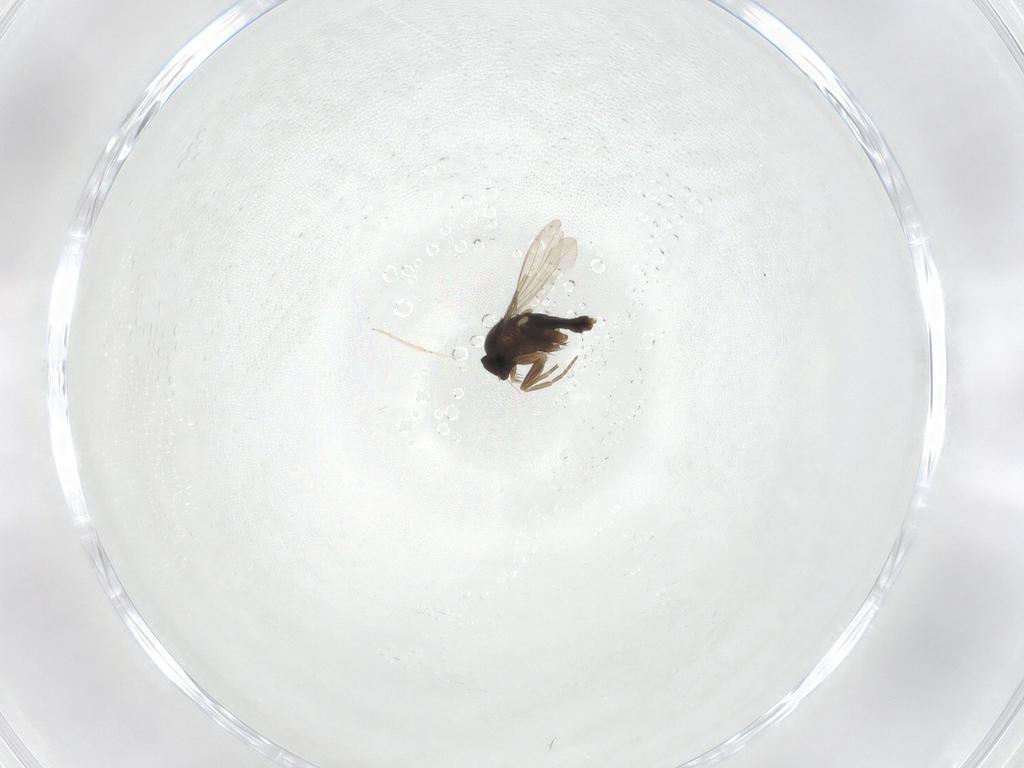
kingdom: Animalia
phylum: Arthropoda
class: Insecta
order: Diptera
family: Phoridae
